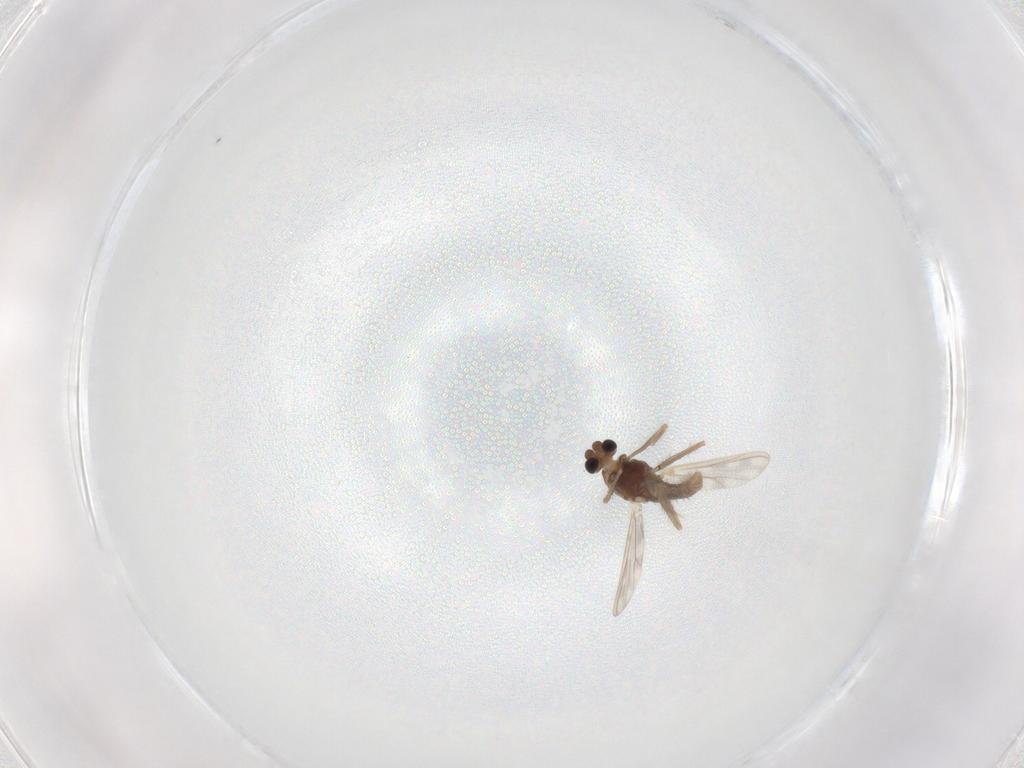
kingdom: Animalia
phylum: Arthropoda
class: Insecta
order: Diptera
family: Chironomidae
